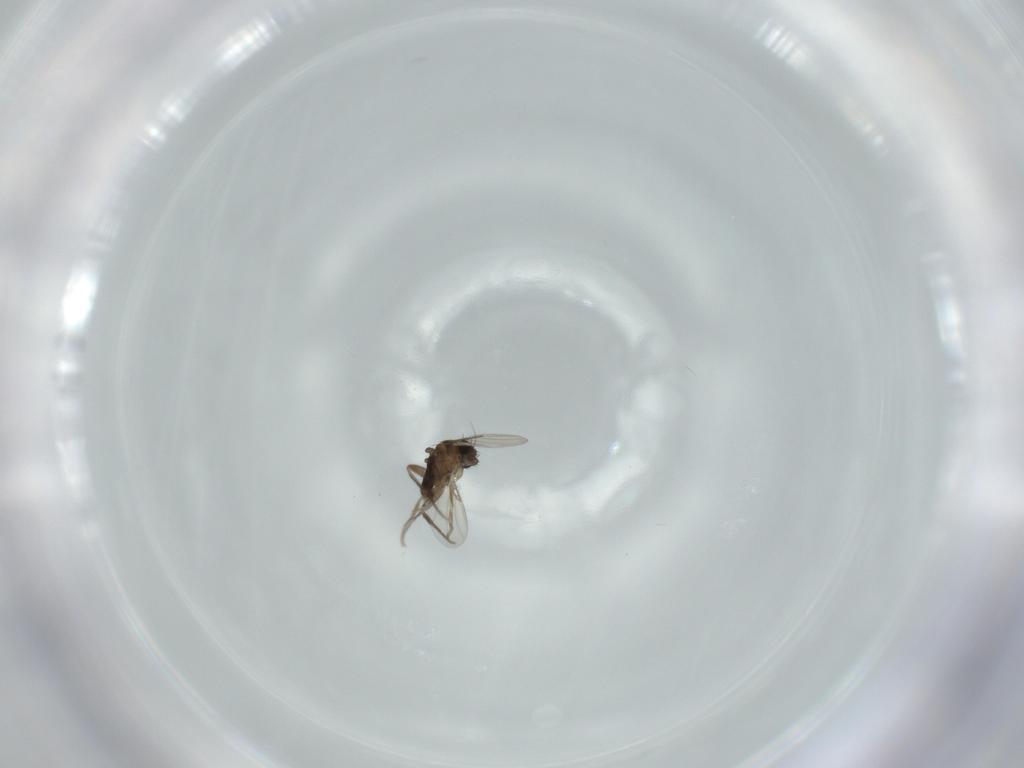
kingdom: Animalia
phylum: Arthropoda
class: Insecta
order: Diptera
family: Phoridae
